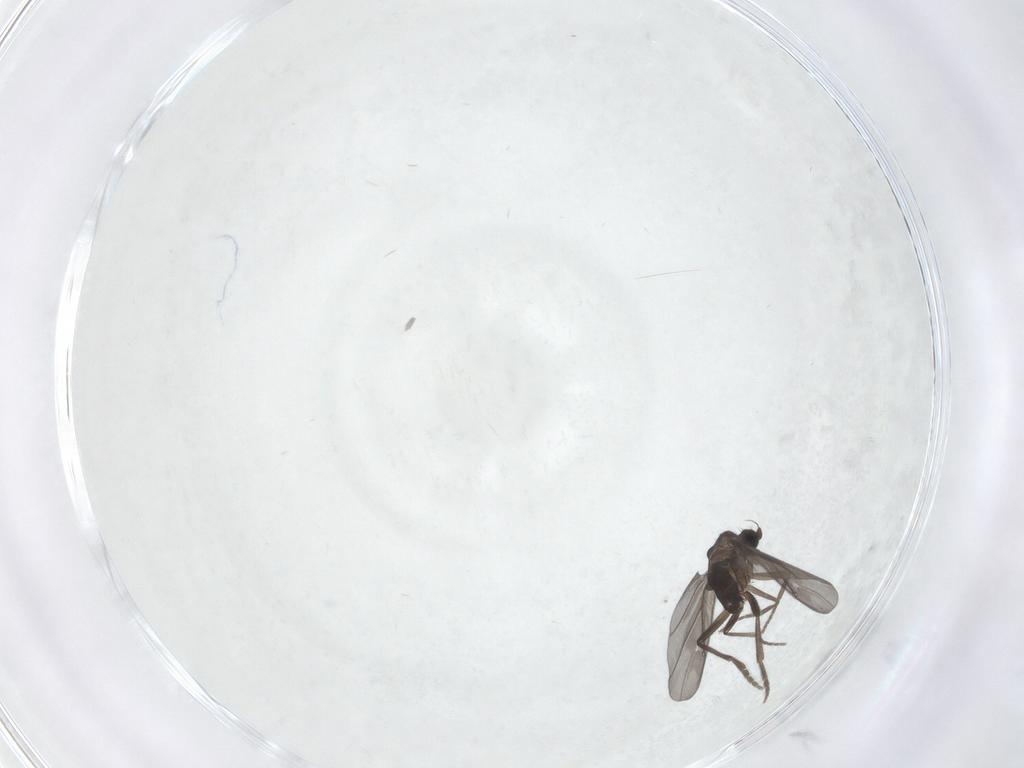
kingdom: Animalia
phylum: Arthropoda
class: Insecta
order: Diptera
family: Phoridae
